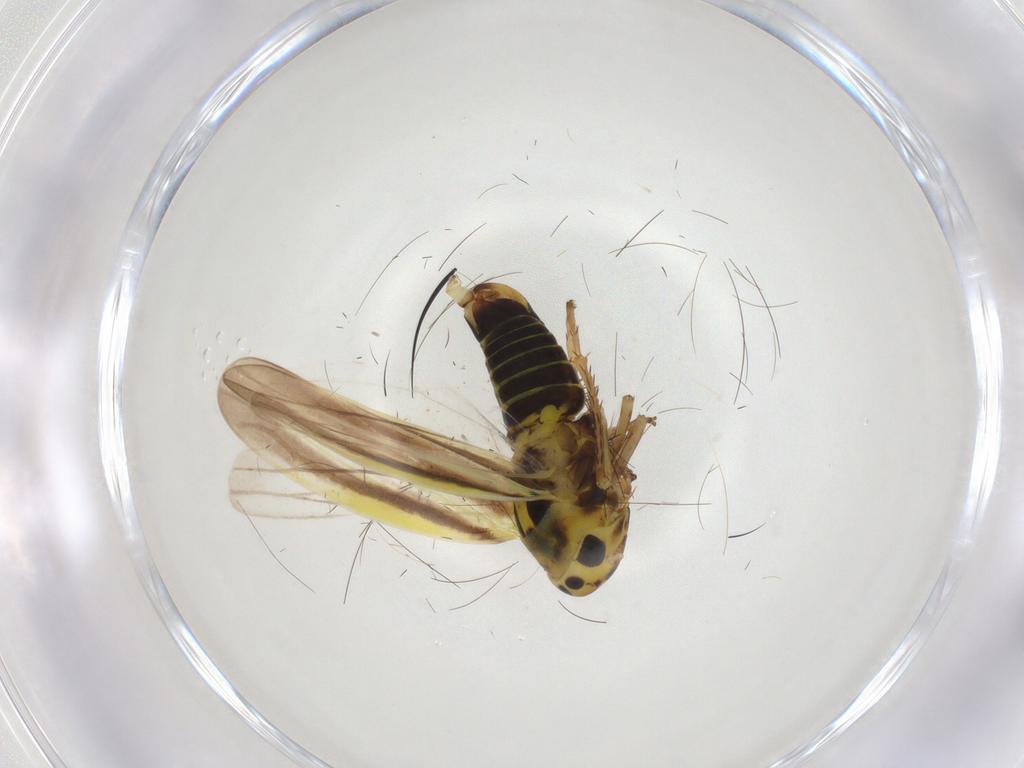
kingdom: Animalia
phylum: Arthropoda
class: Insecta
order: Hemiptera
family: Cicadellidae
